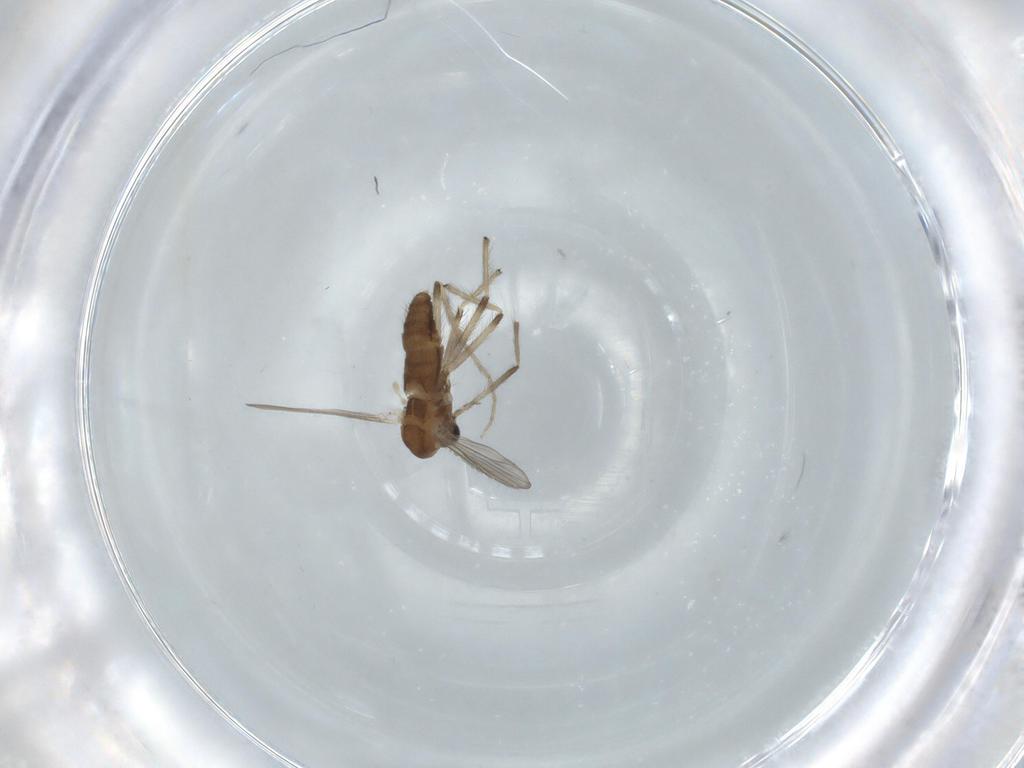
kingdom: Animalia
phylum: Arthropoda
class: Insecta
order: Diptera
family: Chironomidae
